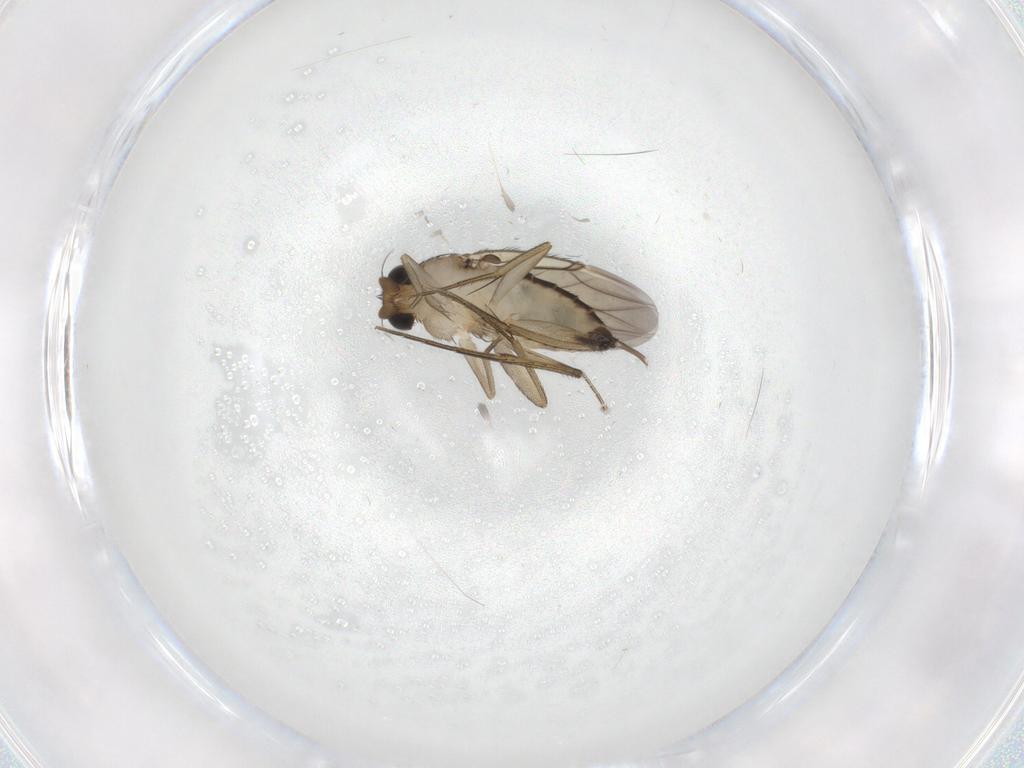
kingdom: Animalia
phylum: Arthropoda
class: Insecta
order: Diptera
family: Phoridae
